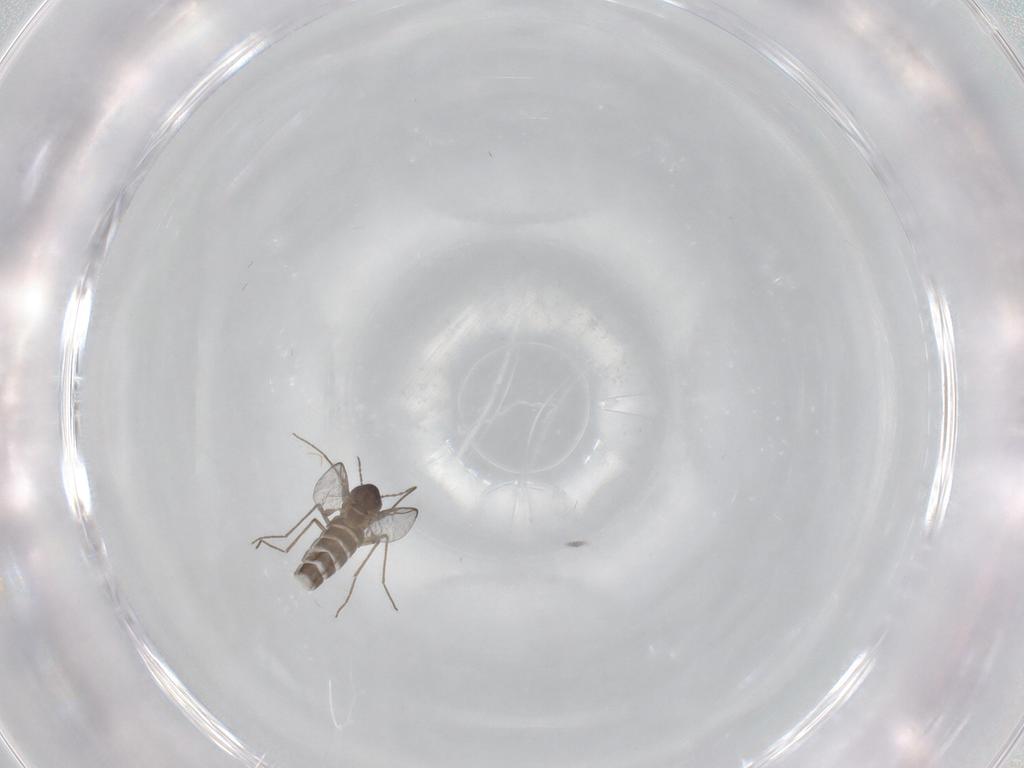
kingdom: Animalia
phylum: Arthropoda
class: Insecta
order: Diptera
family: Chironomidae
